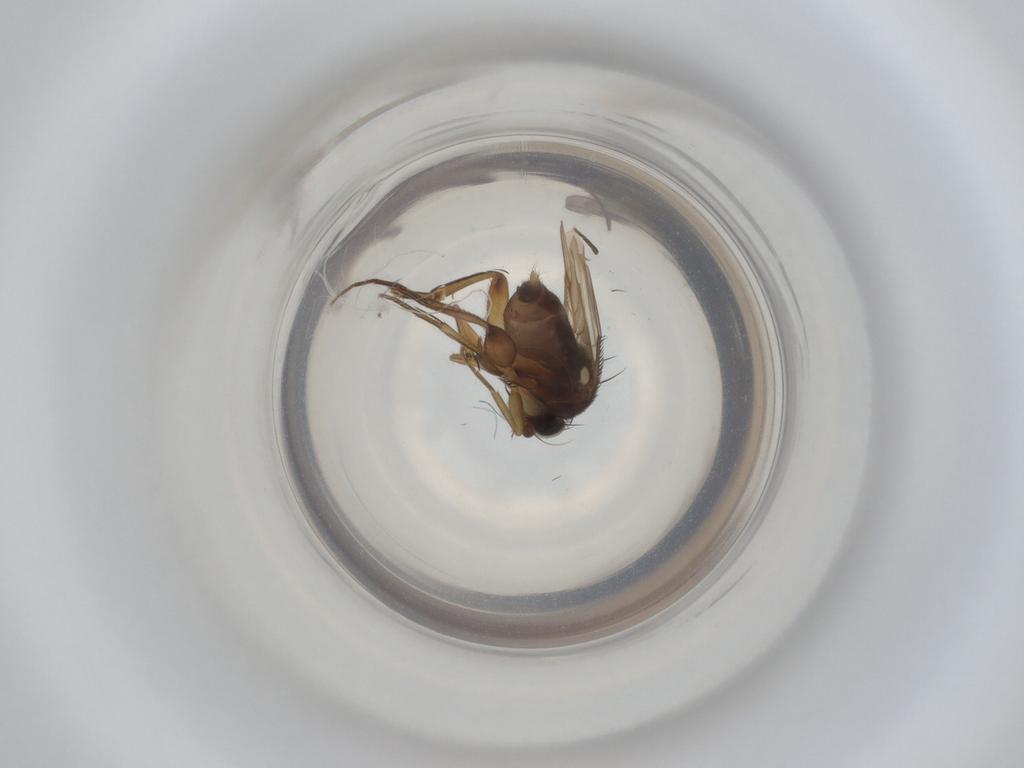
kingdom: Animalia
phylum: Arthropoda
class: Insecta
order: Diptera
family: Phoridae
